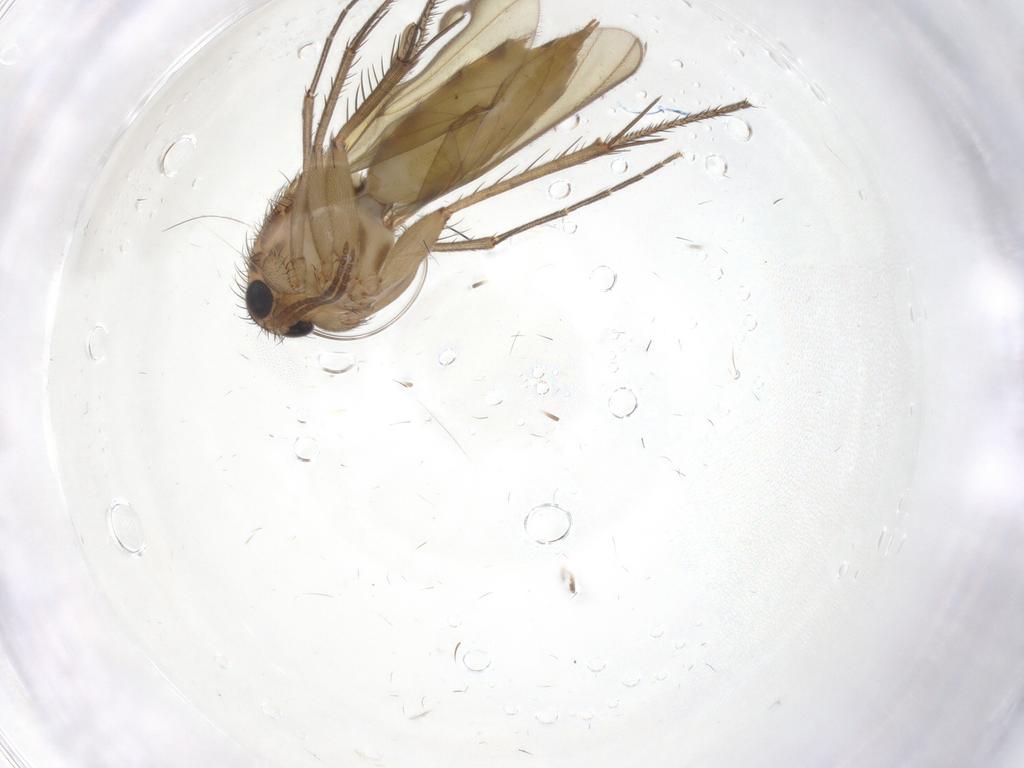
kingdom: Animalia
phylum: Arthropoda
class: Insecta
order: Diptera
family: Mycetophilidae
